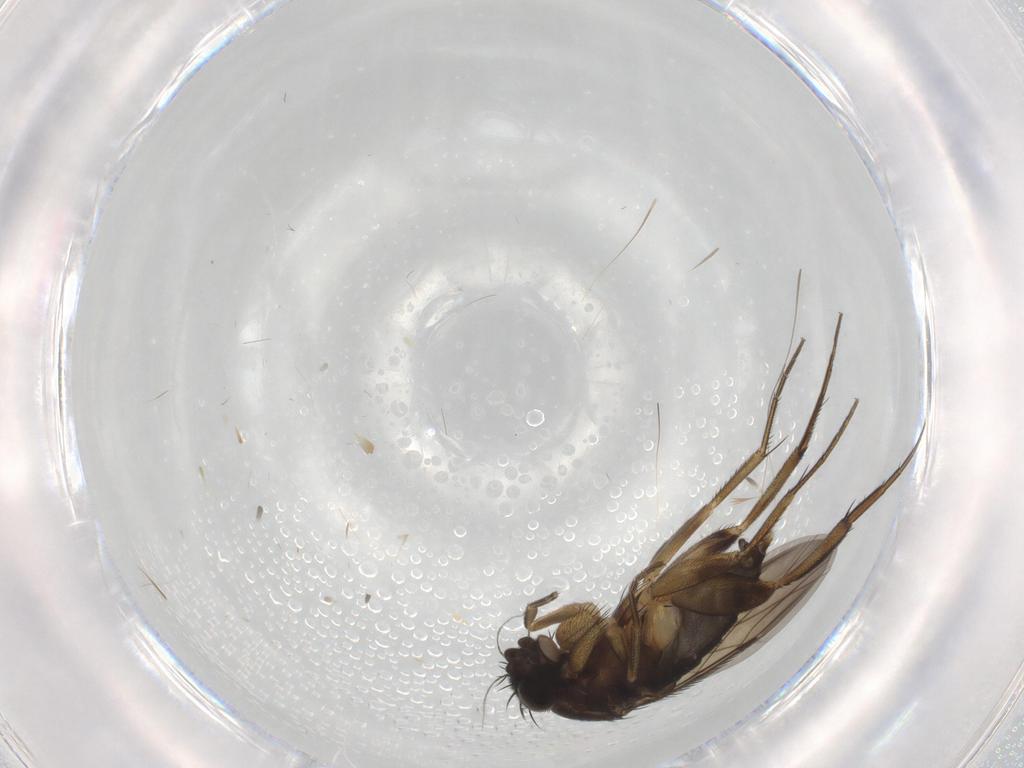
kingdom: Animalia
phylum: Arthropoda
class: Insecta
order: Diptera
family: Phoridae
